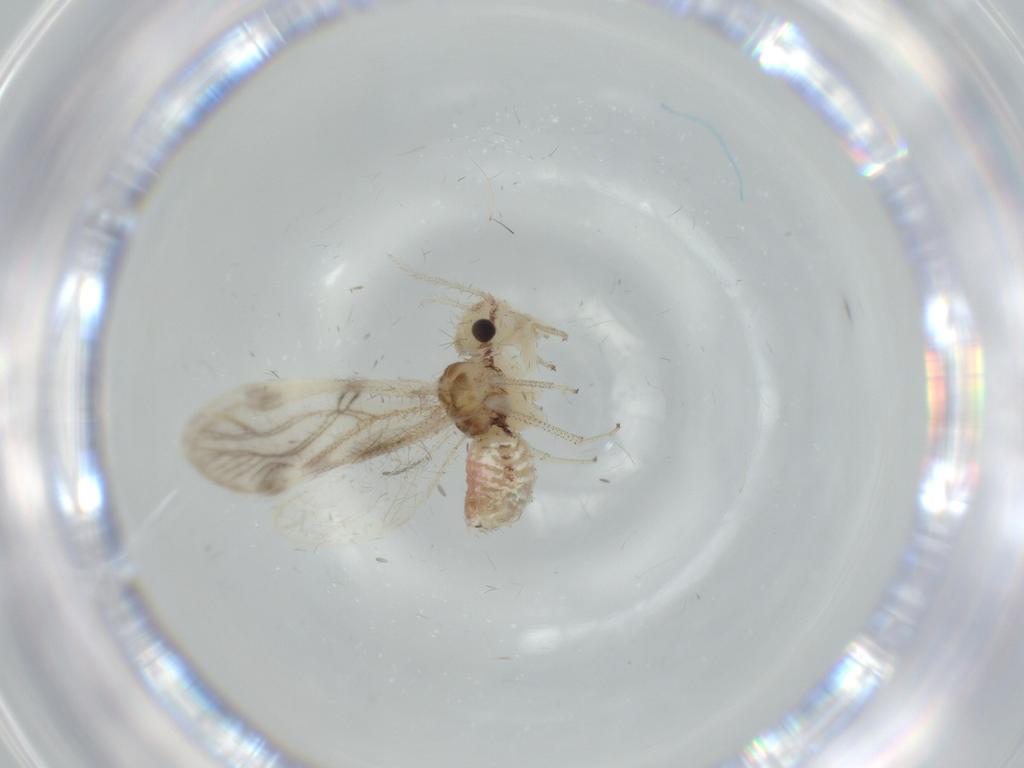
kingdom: Animalia
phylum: Arthropoda
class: Insecta
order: Psocodea
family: Pseudocaeciliidae
